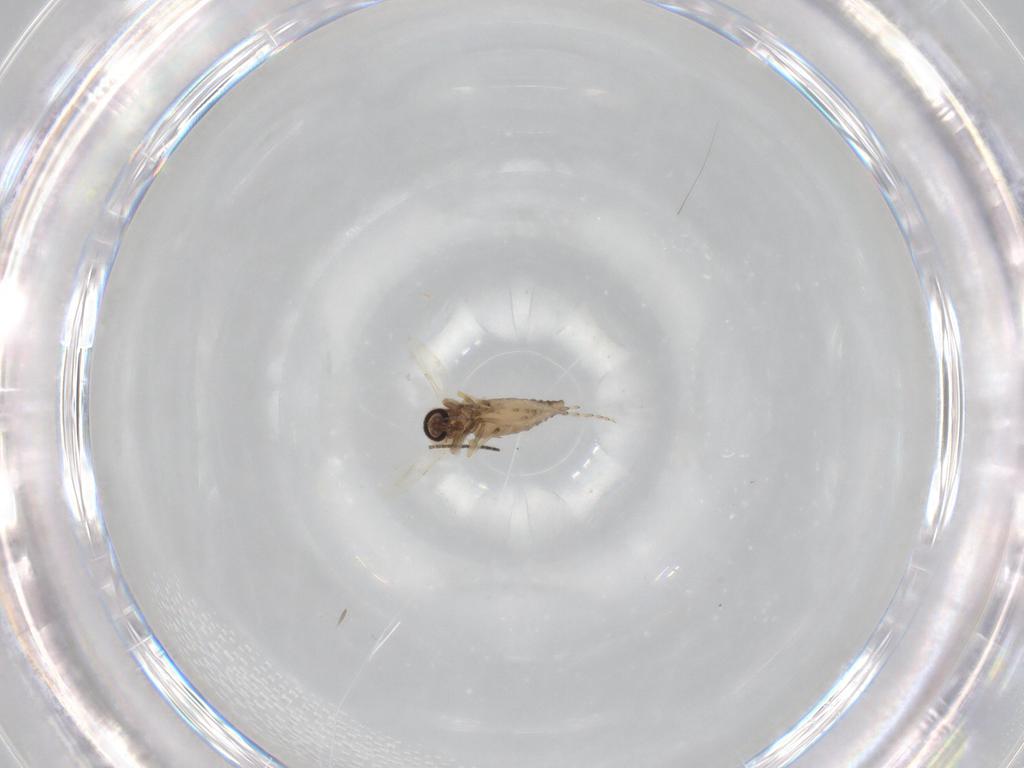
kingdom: Animalia
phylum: Arthropoda
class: Insecta
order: Diptera
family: Ceratopogonidae
